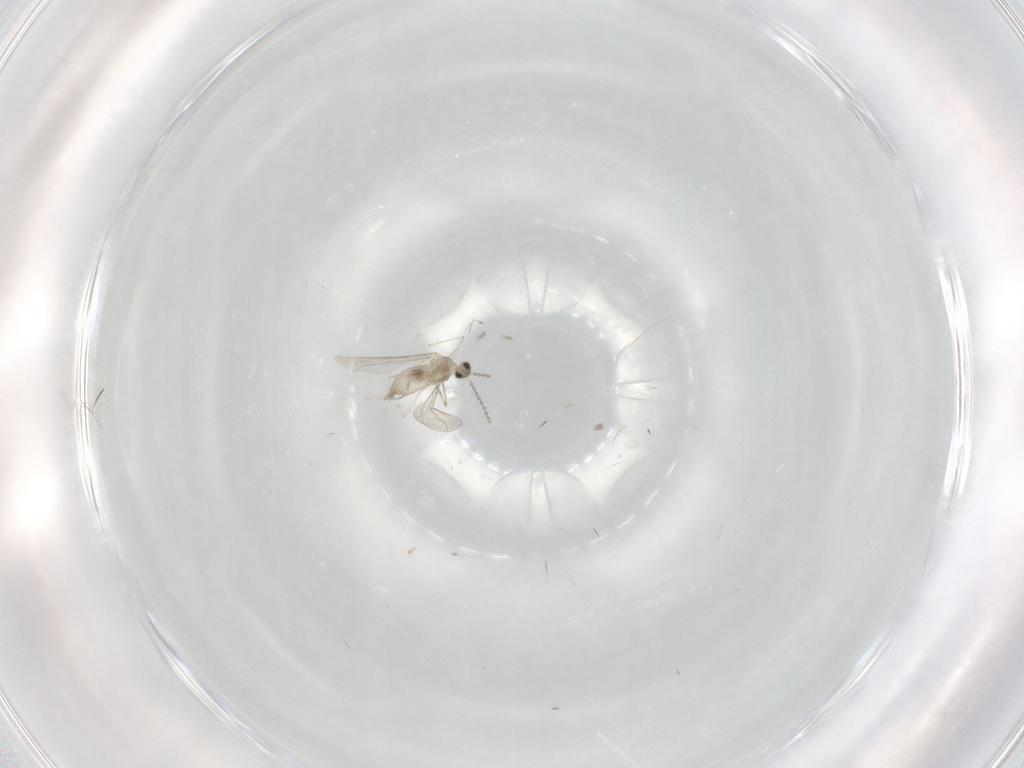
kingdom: Animalia
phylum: Arthropoda
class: Insecta
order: Diptera
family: Cecidomyiidae
